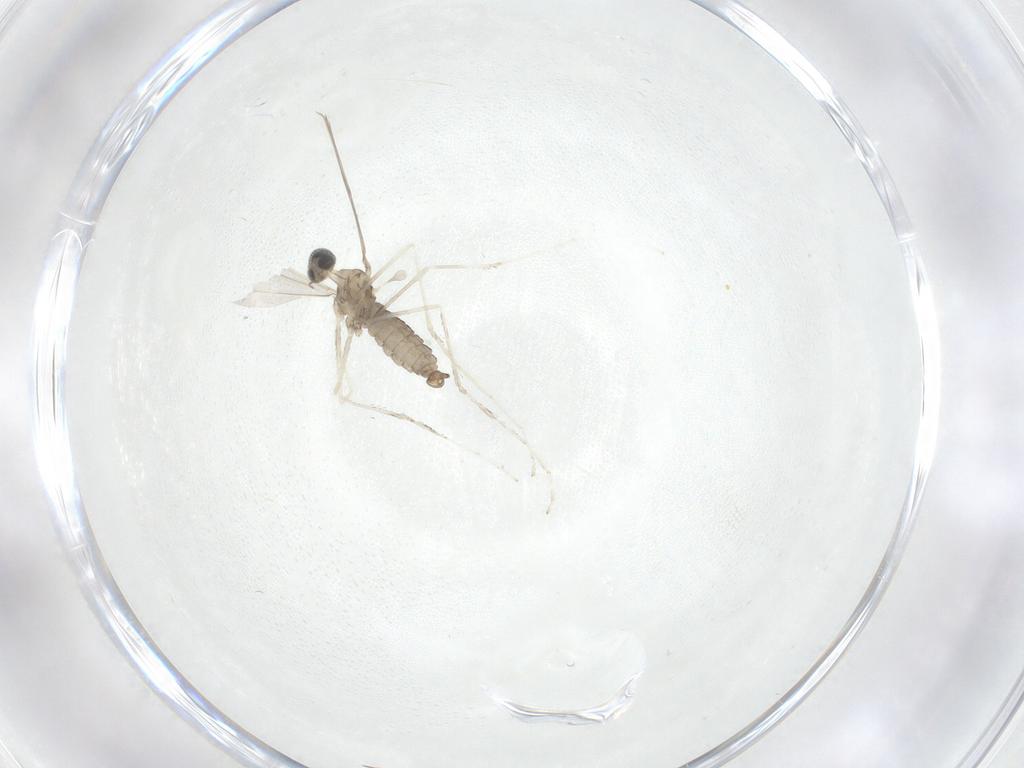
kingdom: Animalia
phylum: Arthropoda
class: Insecta
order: Diptera
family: Cecidomyiidae
